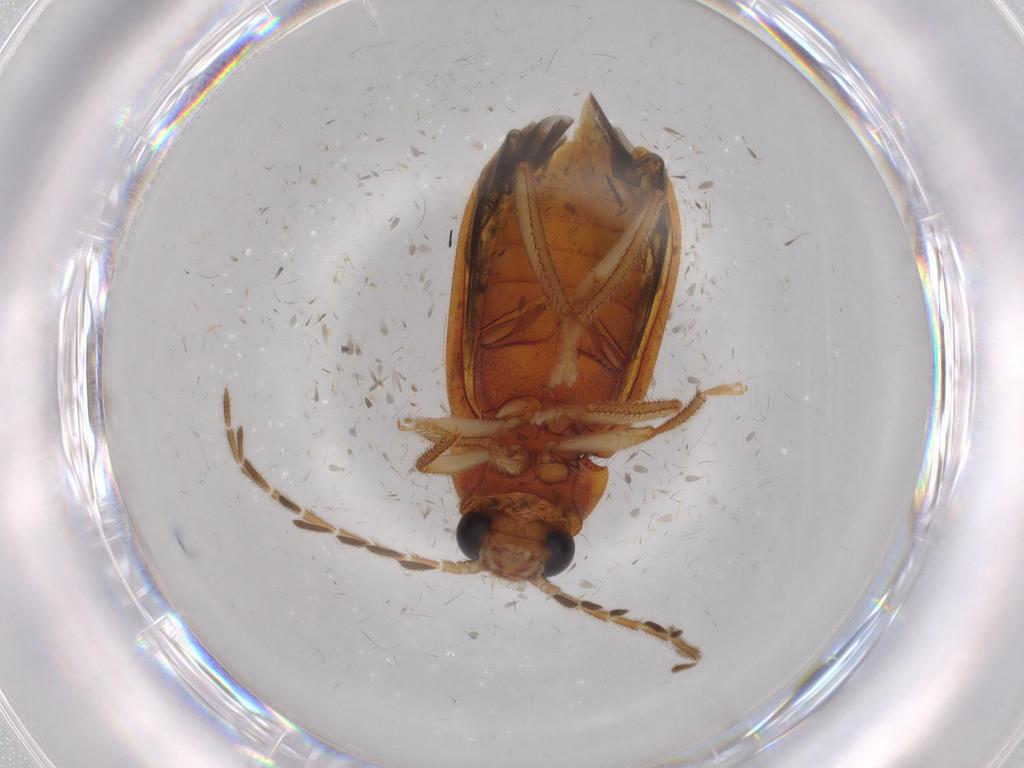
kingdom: Animalia
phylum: Arthropoda
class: Insecta
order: Coleoptera
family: Ptilodactylidae
